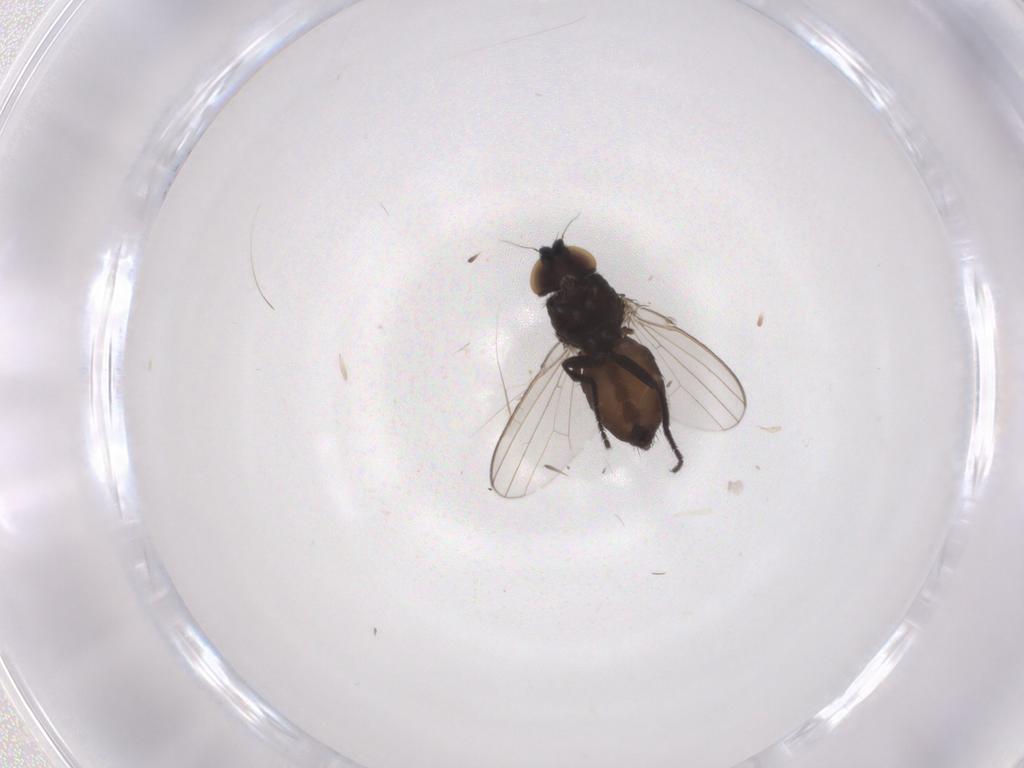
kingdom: Animalia
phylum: Arthropoda
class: Insecta
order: Diptera
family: Milichiidae
